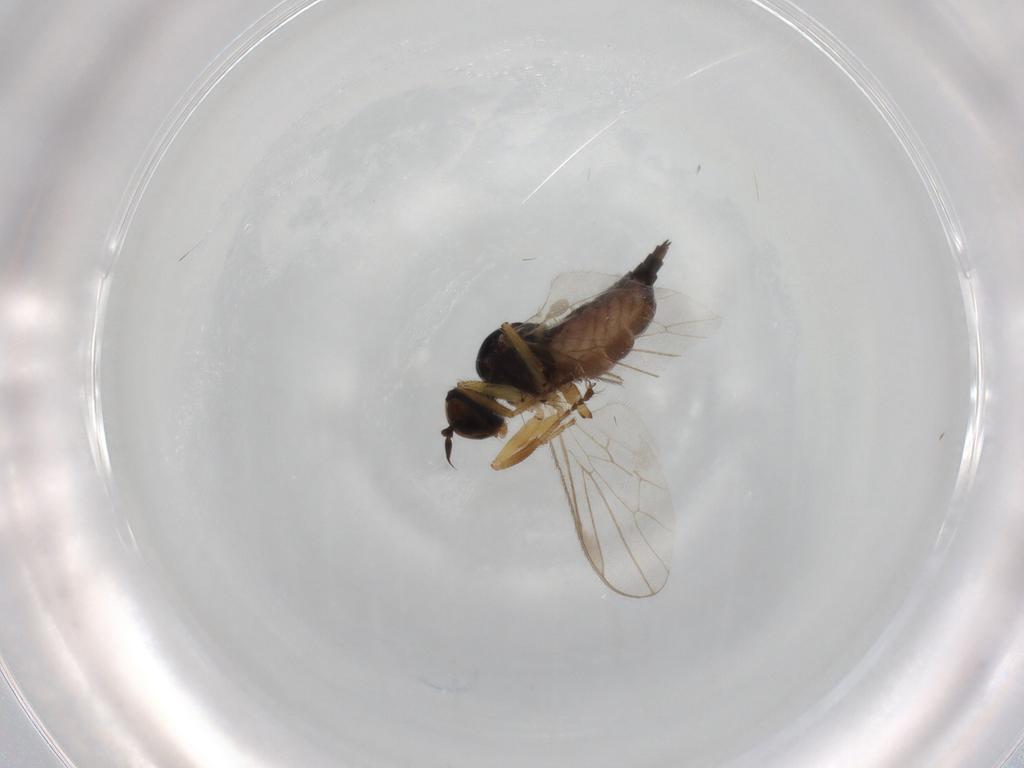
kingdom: Animalia
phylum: Arthropoda
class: Insecta
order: Diptera
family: Hybotidae
